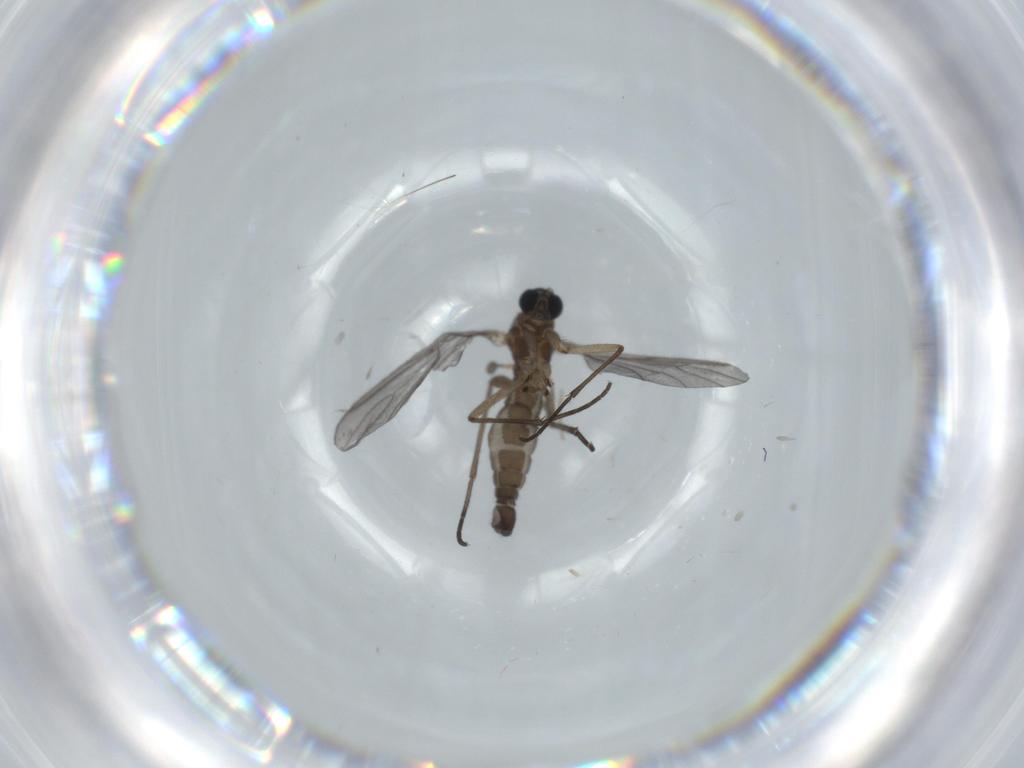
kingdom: Animalia
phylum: Arthropoda
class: Insecta
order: Diptera
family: Sciaridae
